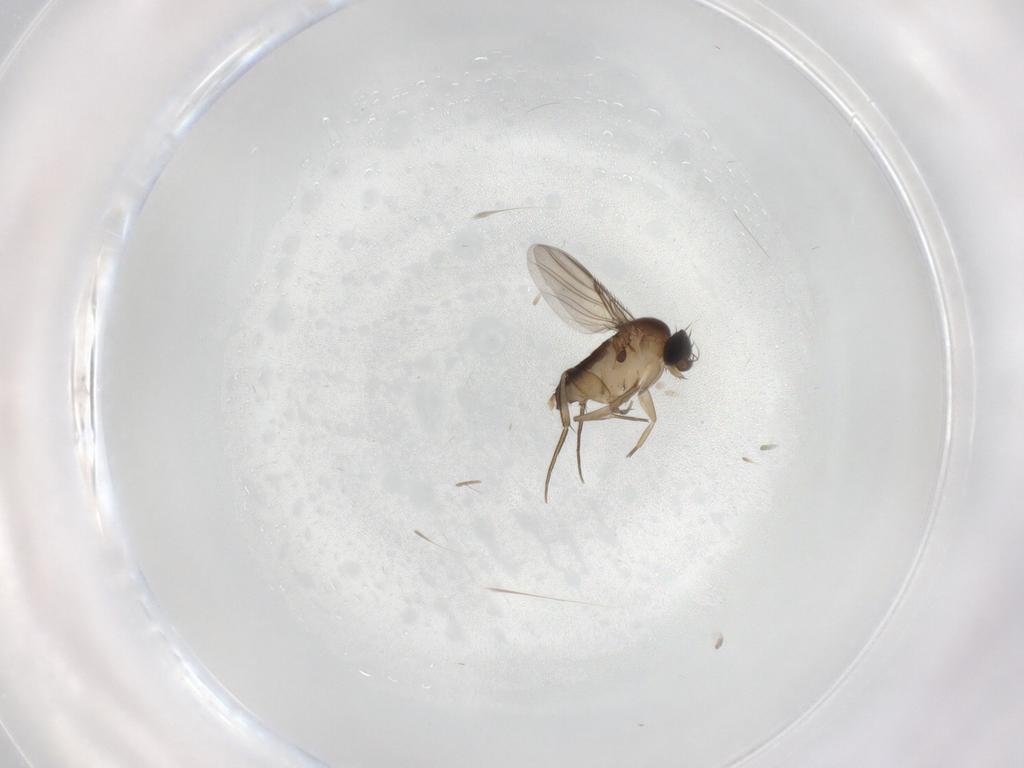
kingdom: Animalia
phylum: Arthropoda
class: Insecta
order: Diptera
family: Phoridae
